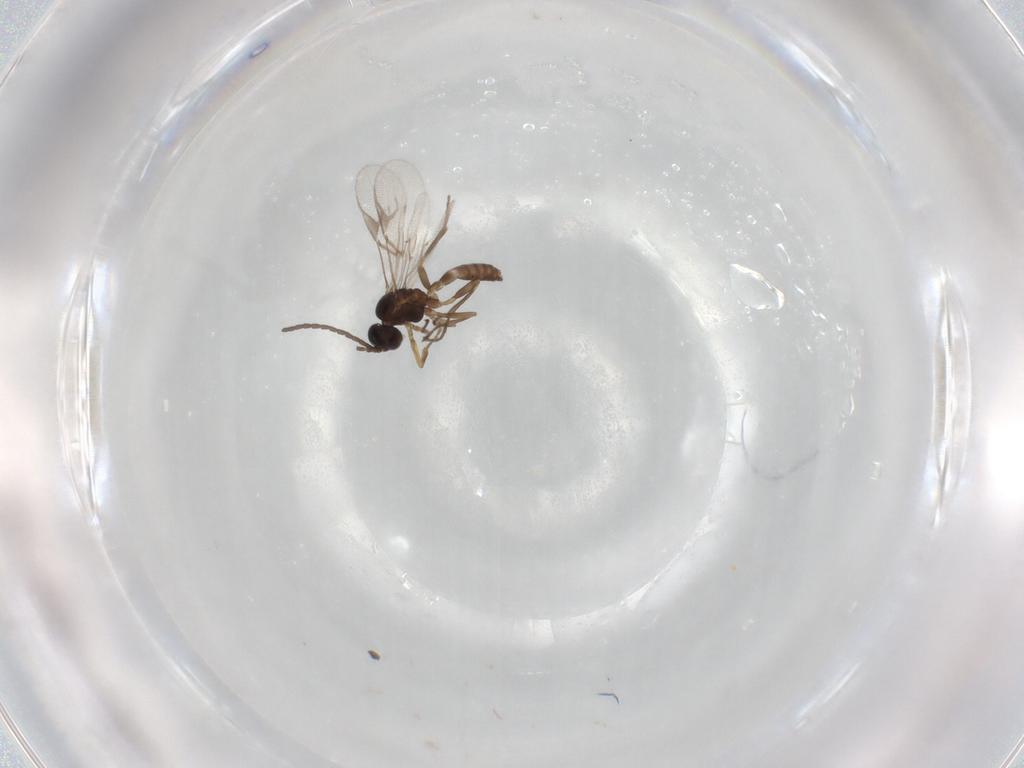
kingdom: Animalia
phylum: Arthropoda
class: Insecta
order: Hymenoptera
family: Braconidae
